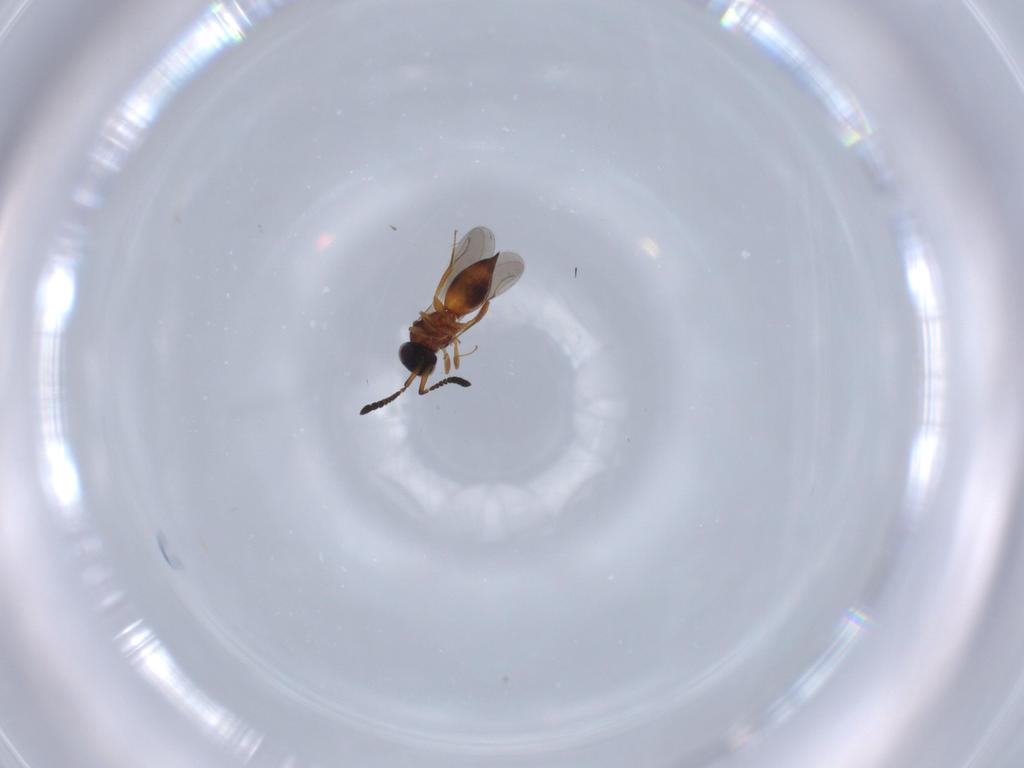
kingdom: Animalia
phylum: Arthropoda
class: Insecta
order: Hymenoptera
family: Ceraphronidae
